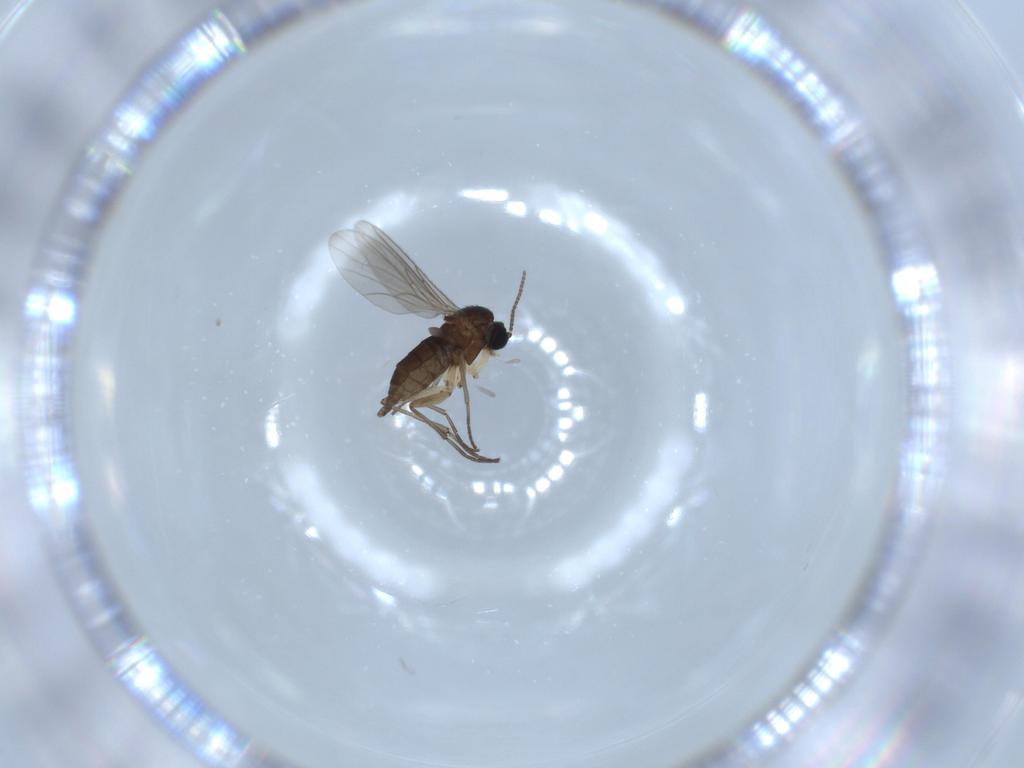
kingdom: Animalia
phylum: Arthropoda
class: Insecta
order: Diptera
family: Sciaridae
